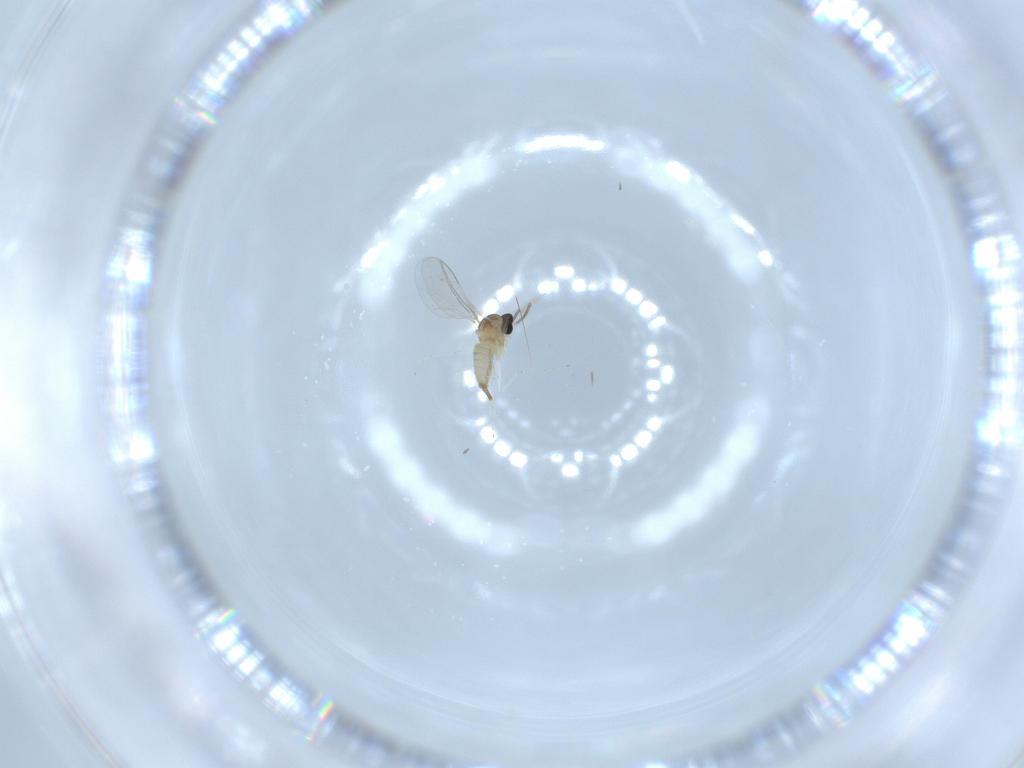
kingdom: Animalia
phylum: Arthropoda
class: Insecta
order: Diptera
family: Cecidomyiidae
